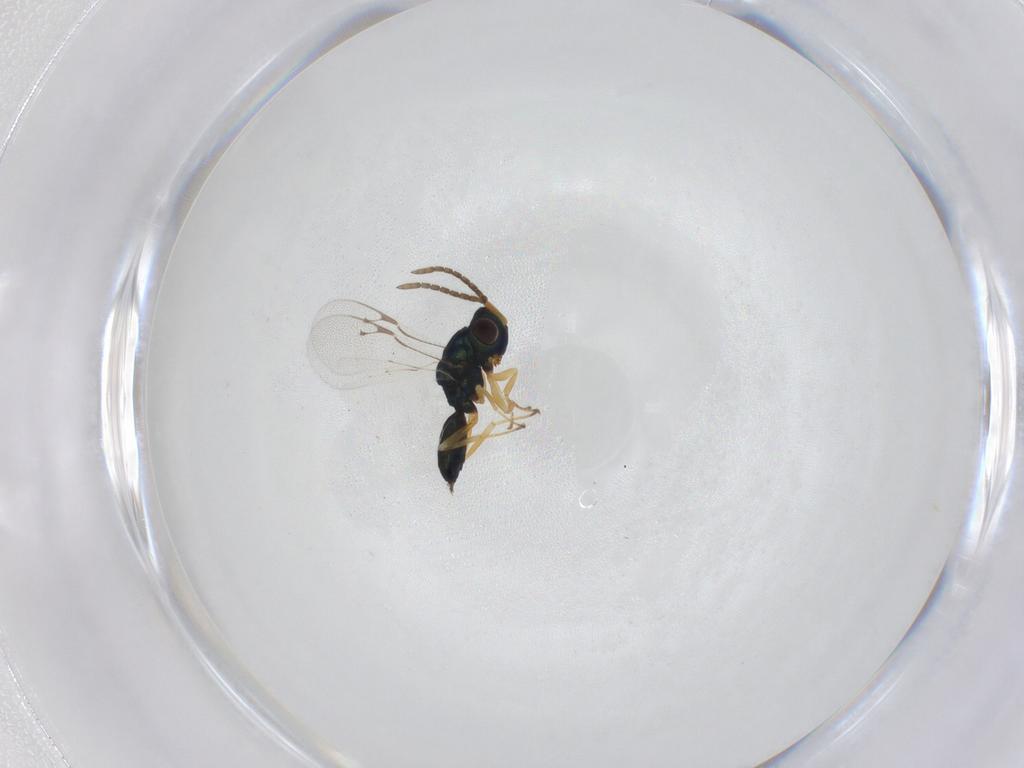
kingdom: Animalia
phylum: Arthropoda
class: Insecta
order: Hymenoptera
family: Pteromalidae
